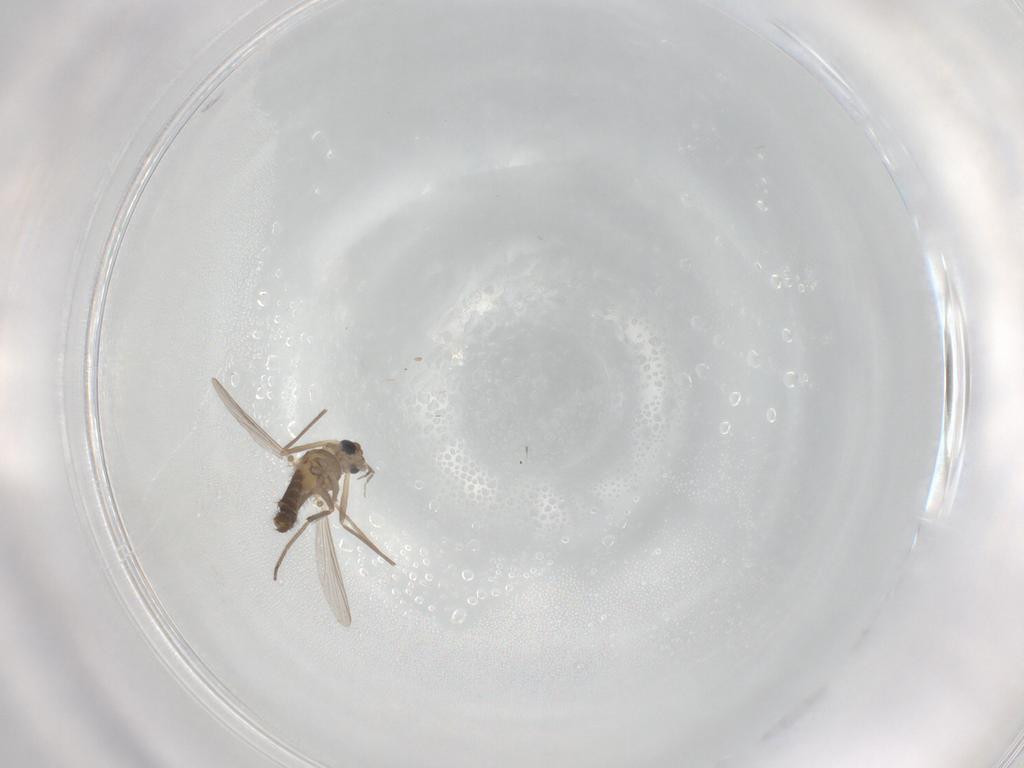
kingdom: Animalia
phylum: Arthropoda
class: Insecta
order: Diptera
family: Chironomidae
